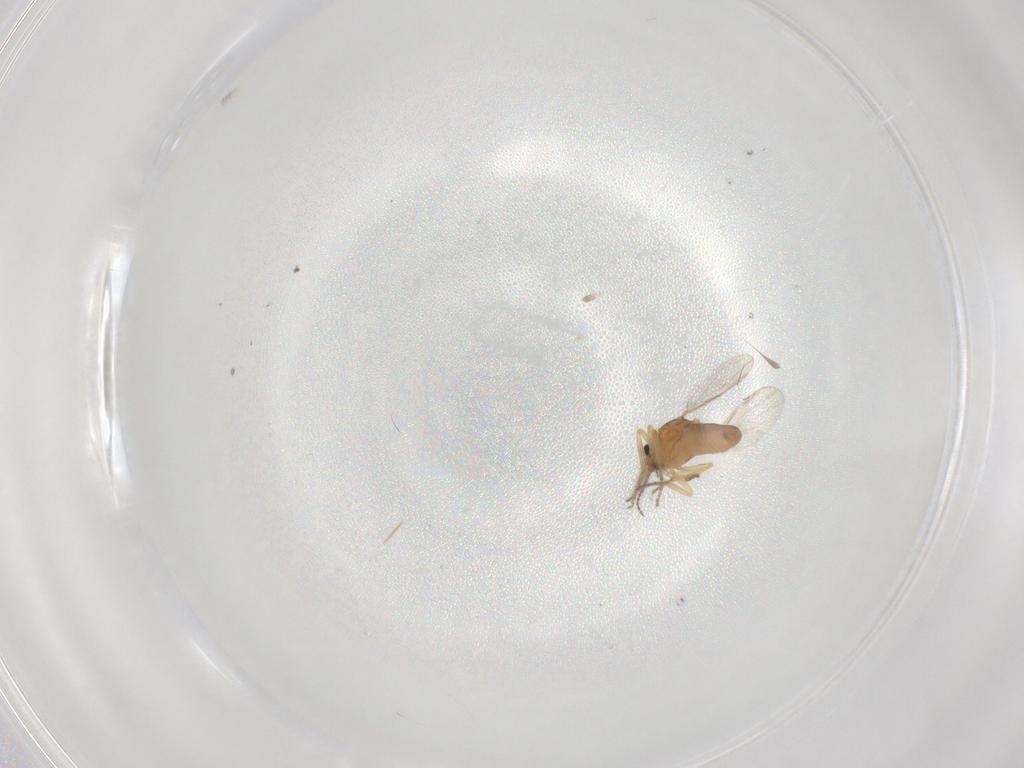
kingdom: Animalia
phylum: Arthropoda
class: Insecta
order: Diptera
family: Ceratopogonidae
